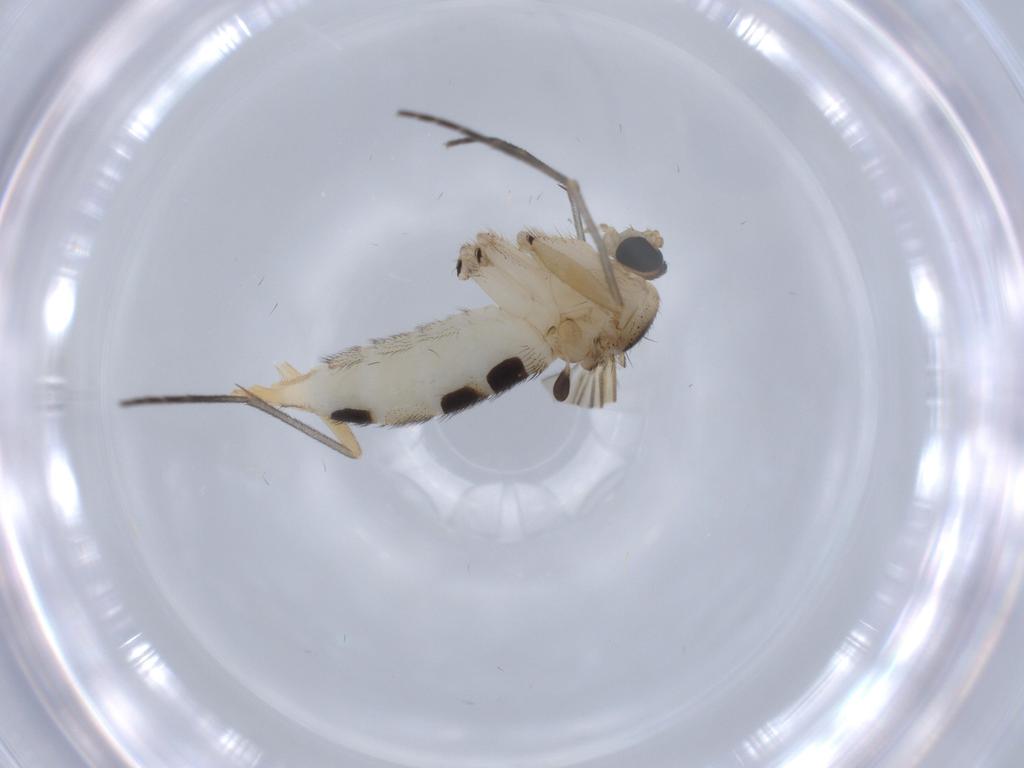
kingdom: Animalia
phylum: Arthropoda
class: Insecta
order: Diptera
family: Sciaridae
